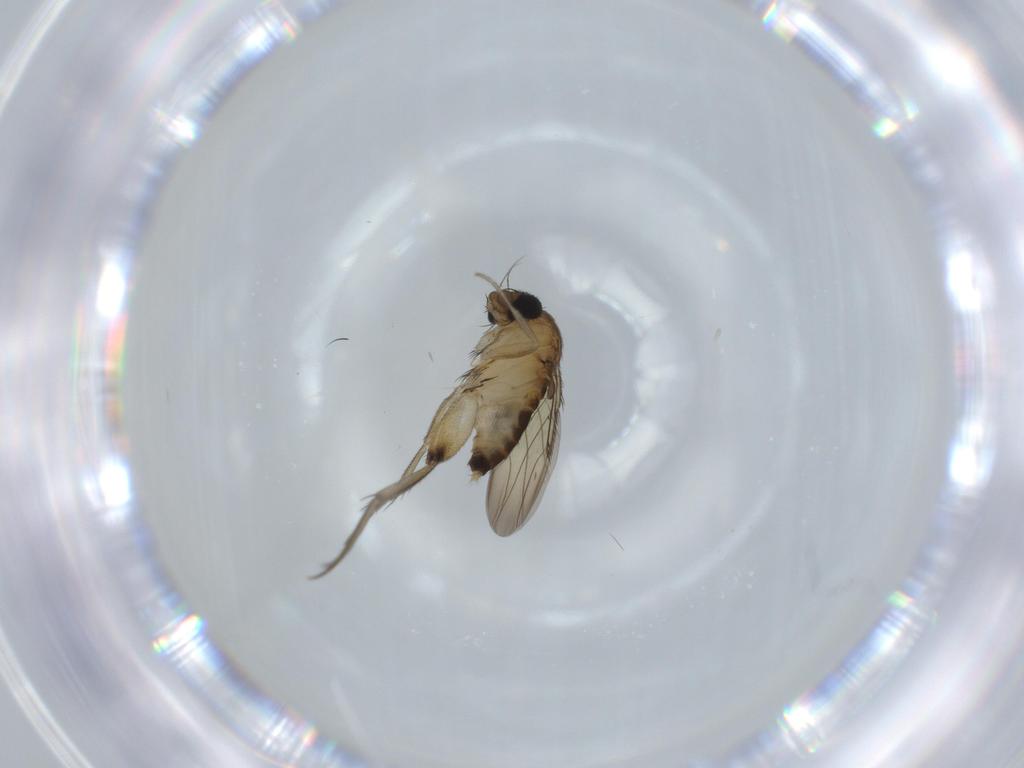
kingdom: Animalia
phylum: Arthropoda
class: Insecta
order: Diptera
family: Phoridae
